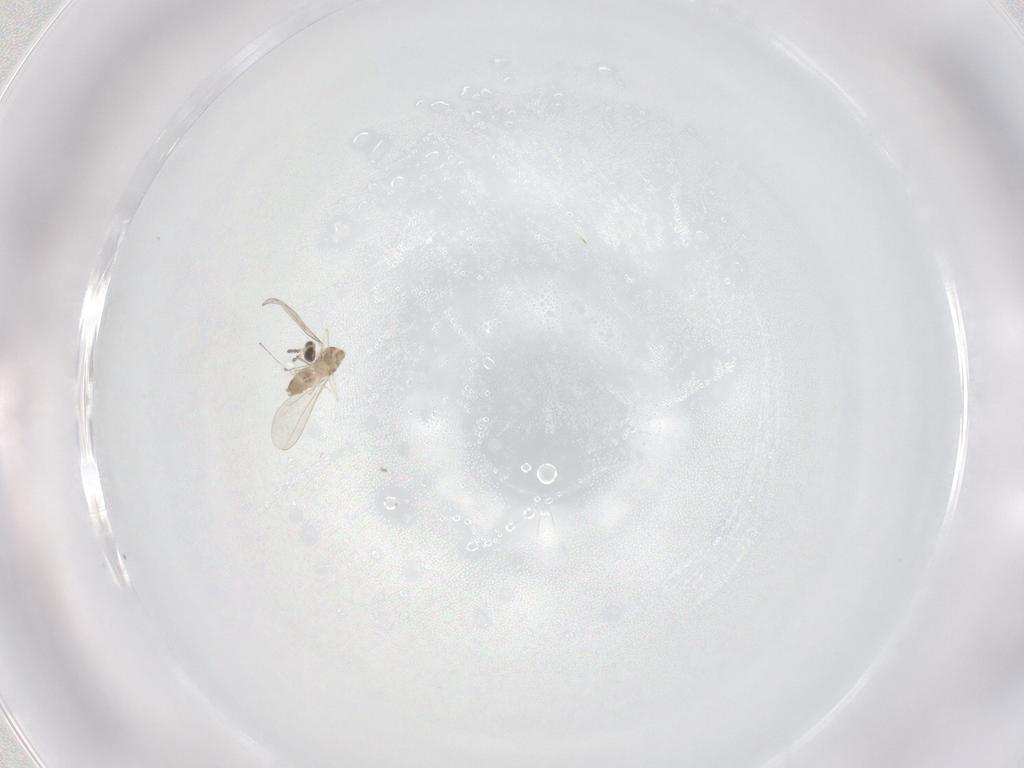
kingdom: Animalia
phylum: Arthropoda
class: Insecta
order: Diptera
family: Cecidomyiidae
